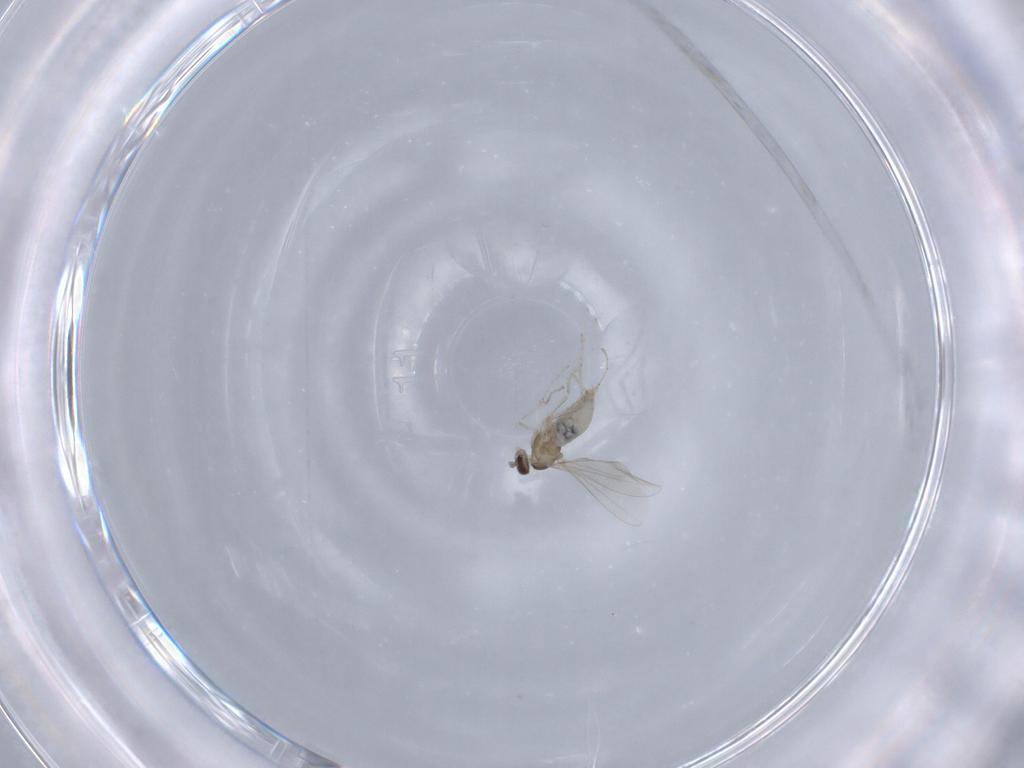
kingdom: Animalia
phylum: Arthropoda
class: Insecta
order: Diptera
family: Cecidomyiidae
